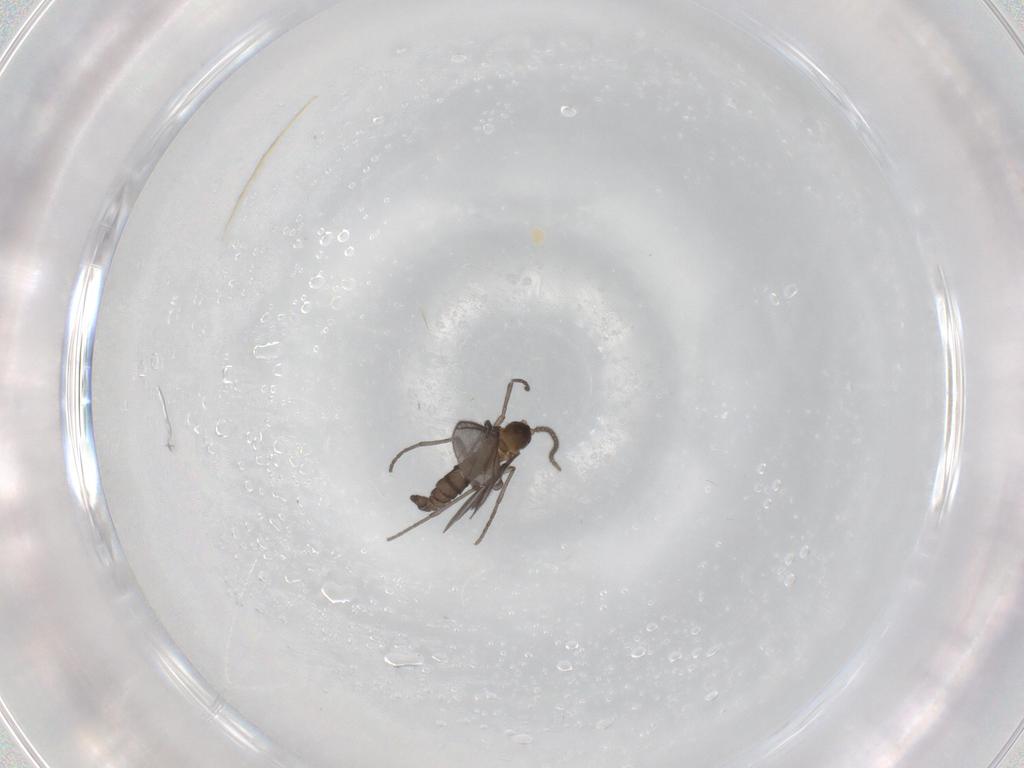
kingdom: Animalia
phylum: Arthropoda
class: Insecta
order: Diptera
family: Sciaridae
